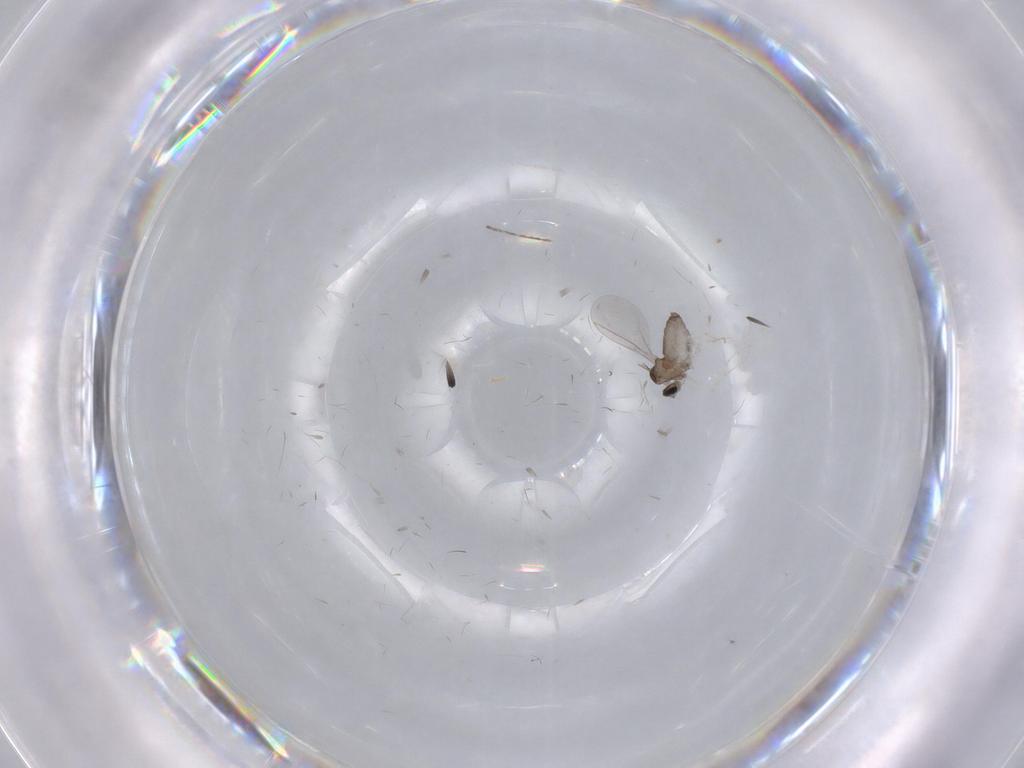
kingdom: Animalia
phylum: Arthropoda
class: Insecta
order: Diptera
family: Cecidomyiidae
